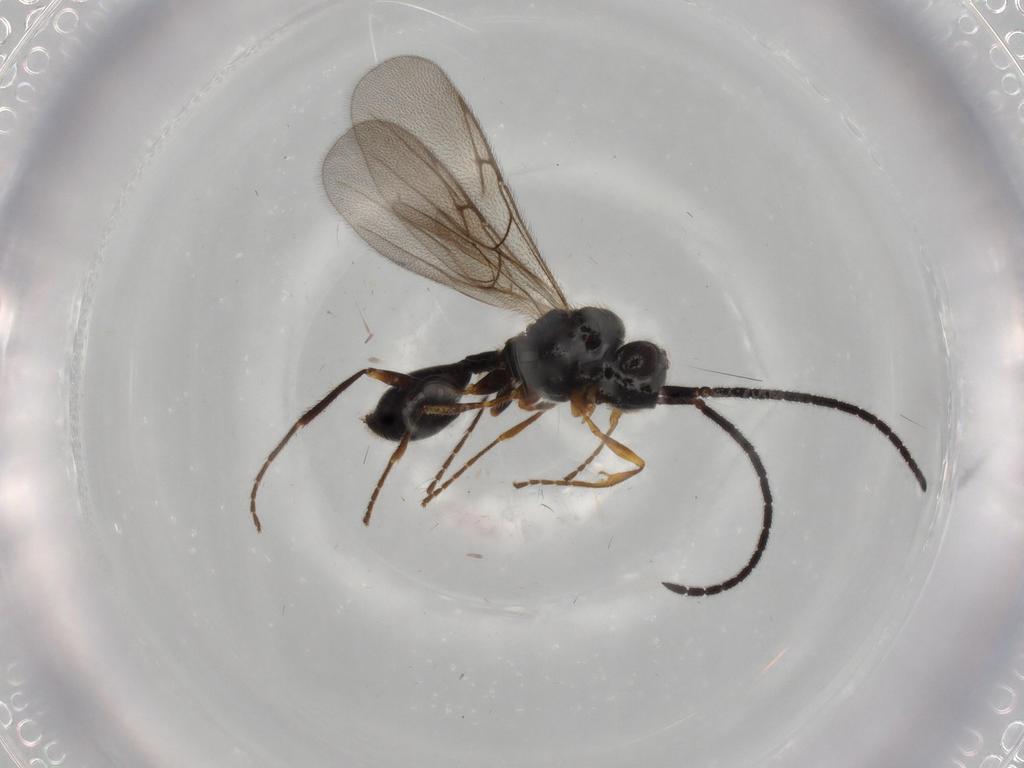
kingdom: Animalia
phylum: Arthropoda
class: Insecta
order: Hymenoptera
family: Diapriidae
